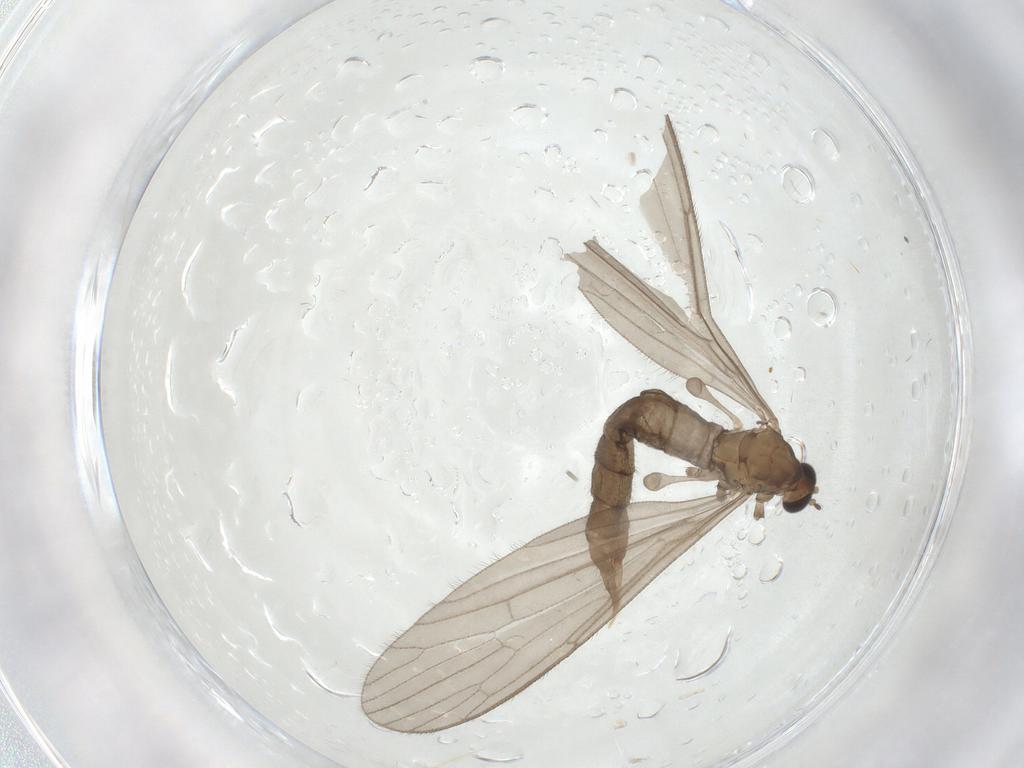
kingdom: Animalia
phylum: Arthropoda
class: Insecta
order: Diptera
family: Limoniidae
